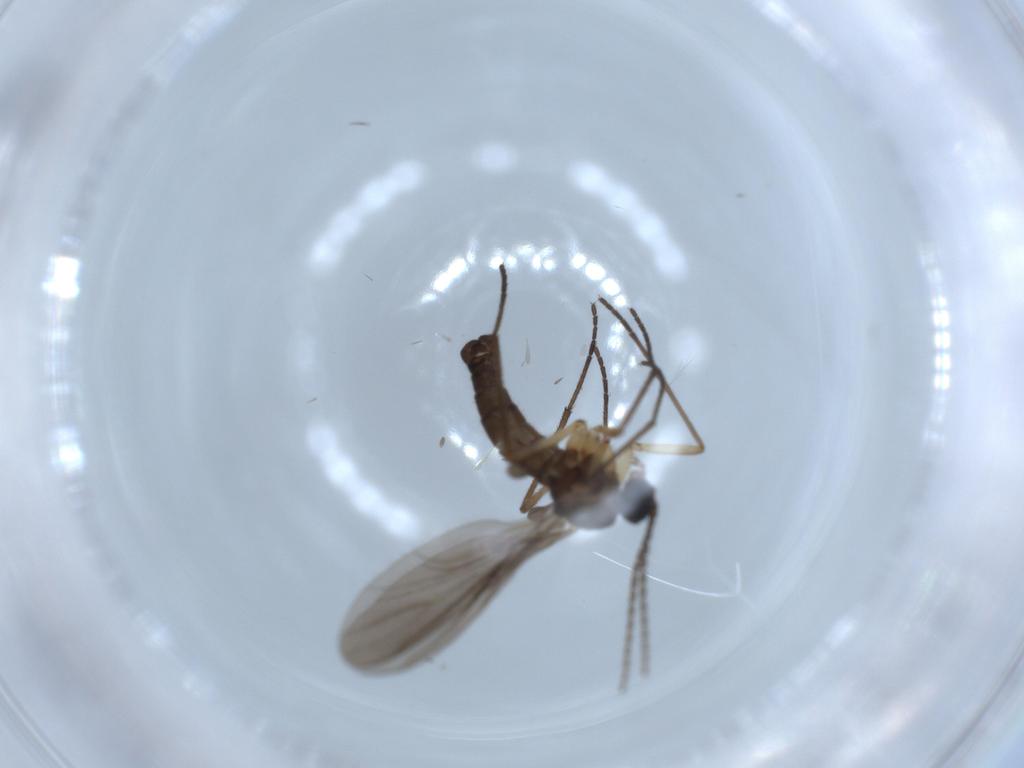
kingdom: Animalia
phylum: Arthropoda
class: Insecta
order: Diptera
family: Sciaridae
